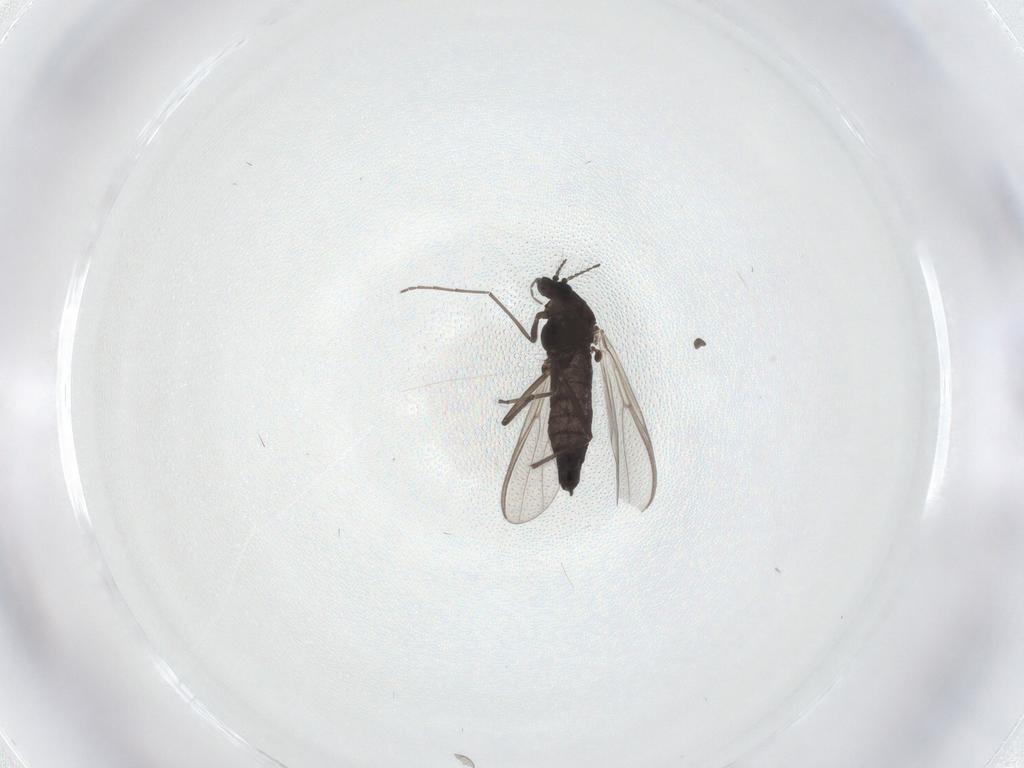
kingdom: Animalia
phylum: Arthropoda
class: Insecta
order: Diptera
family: Chironomidae
